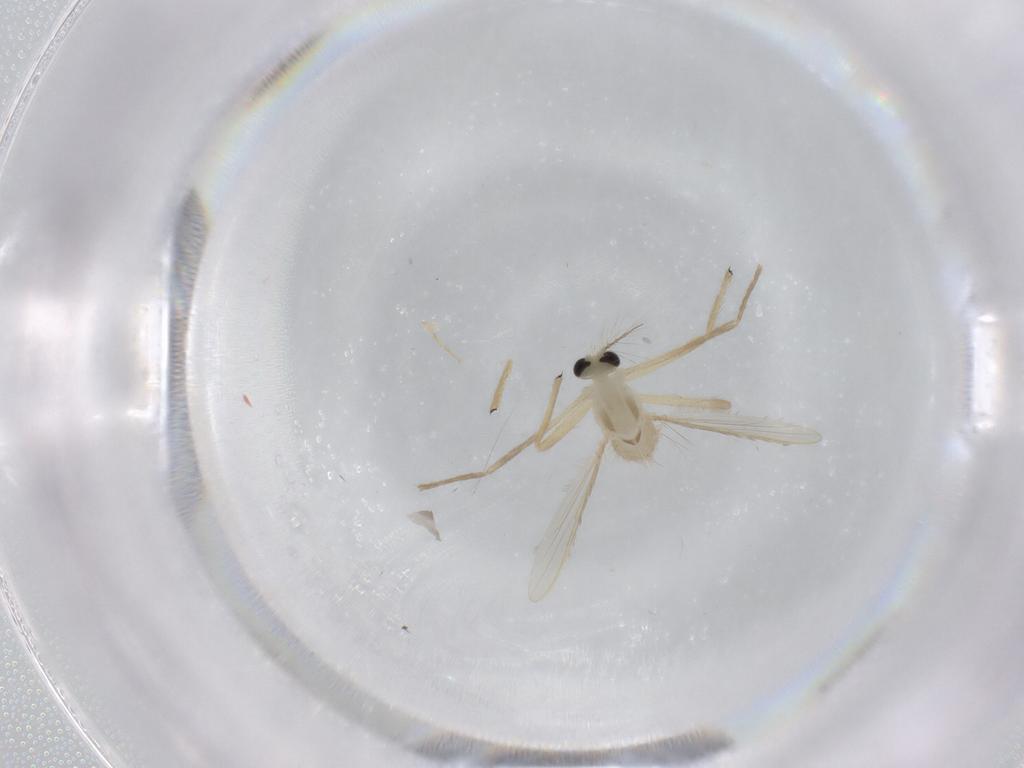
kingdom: Animalia
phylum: Arthropoda
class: Insecta
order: Diptera
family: Chironomidae
